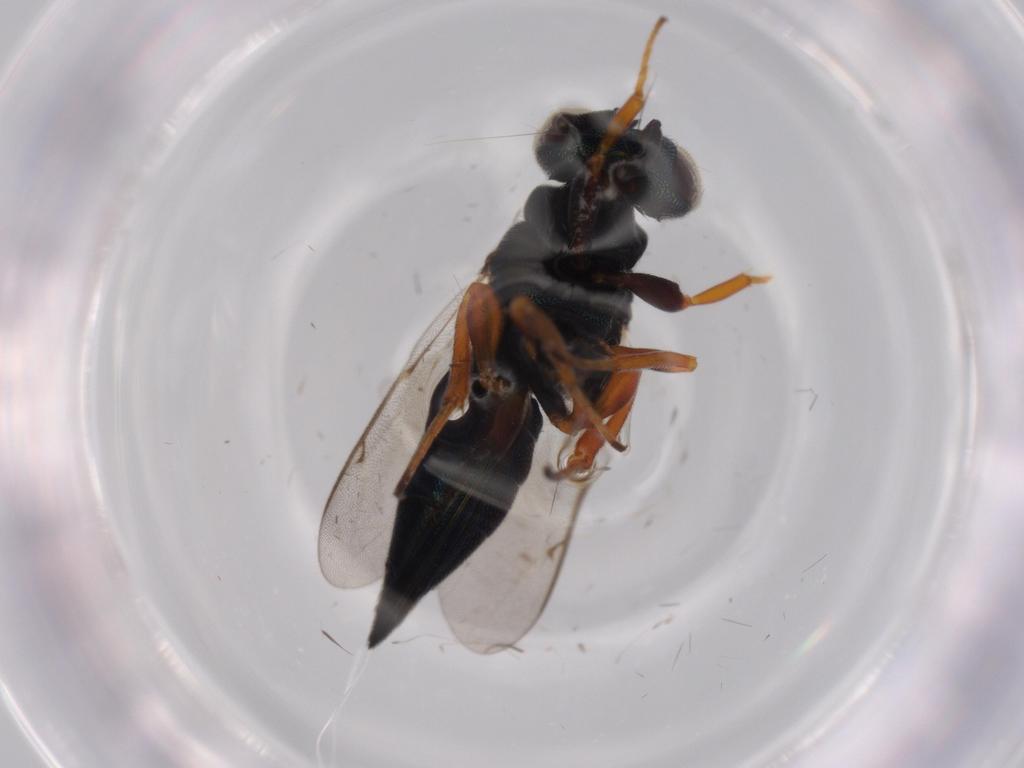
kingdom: Animalia
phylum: Arthropoda
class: Insecta
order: Hymenoptera
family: Lyciscidae
